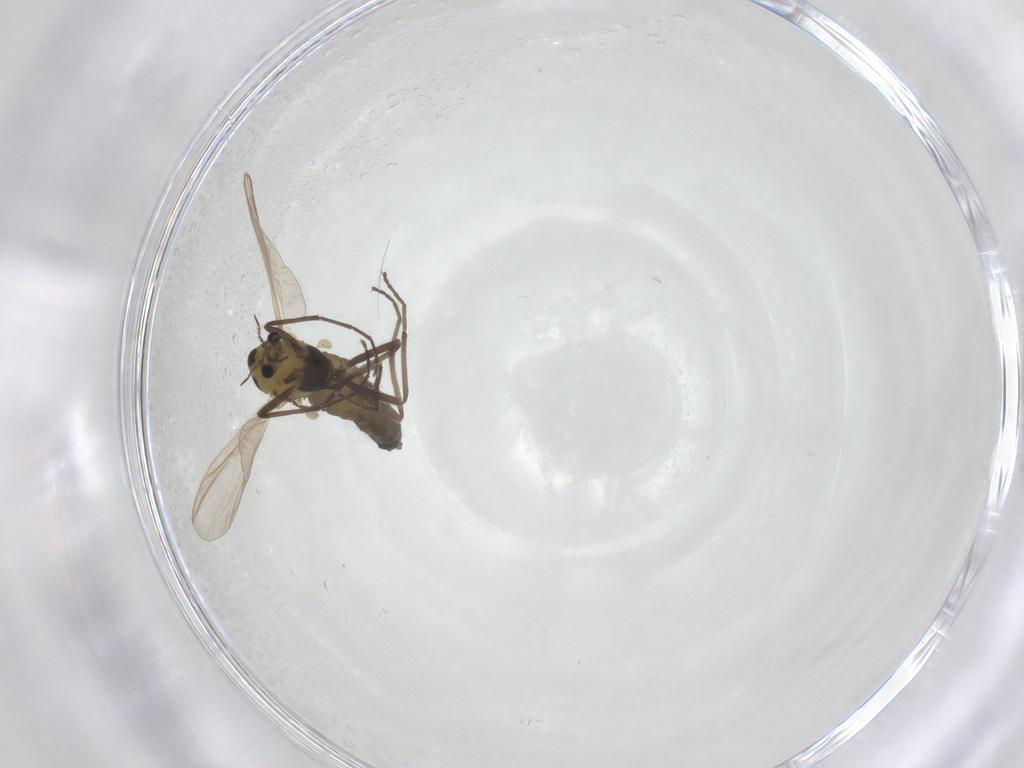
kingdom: Animalia
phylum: Arthropoda
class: Insecta
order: Diptera
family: Chironomidae
